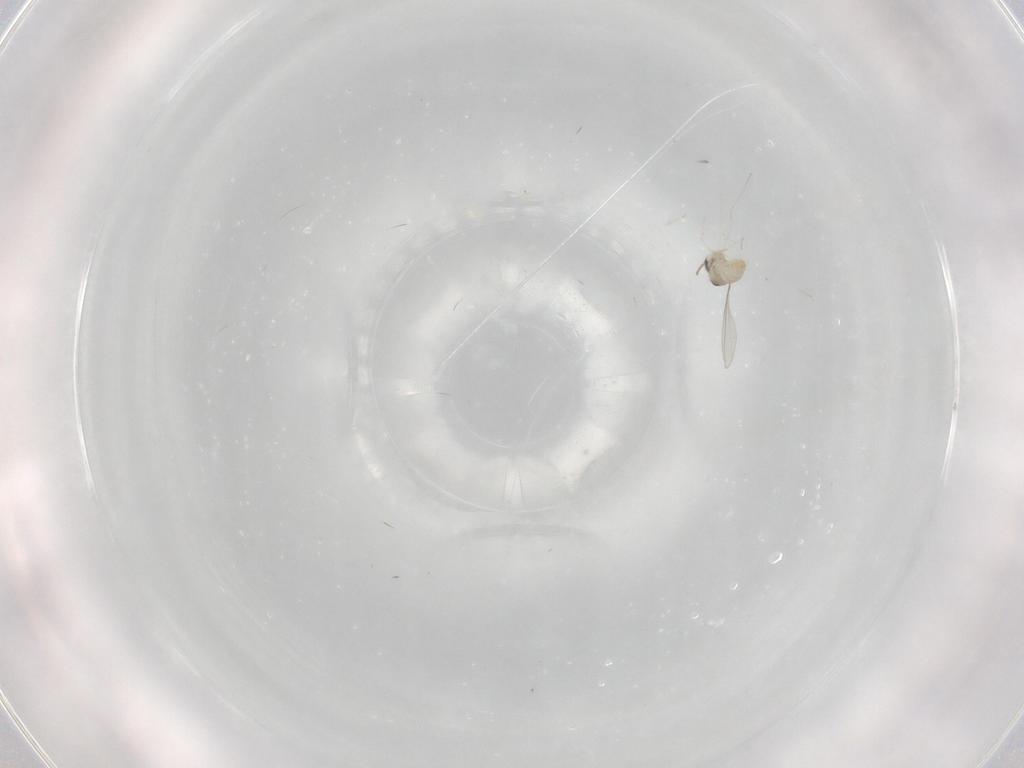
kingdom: Animalia
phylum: Arthropoda
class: Insecta
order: Diptera
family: Cecidomyiidae
